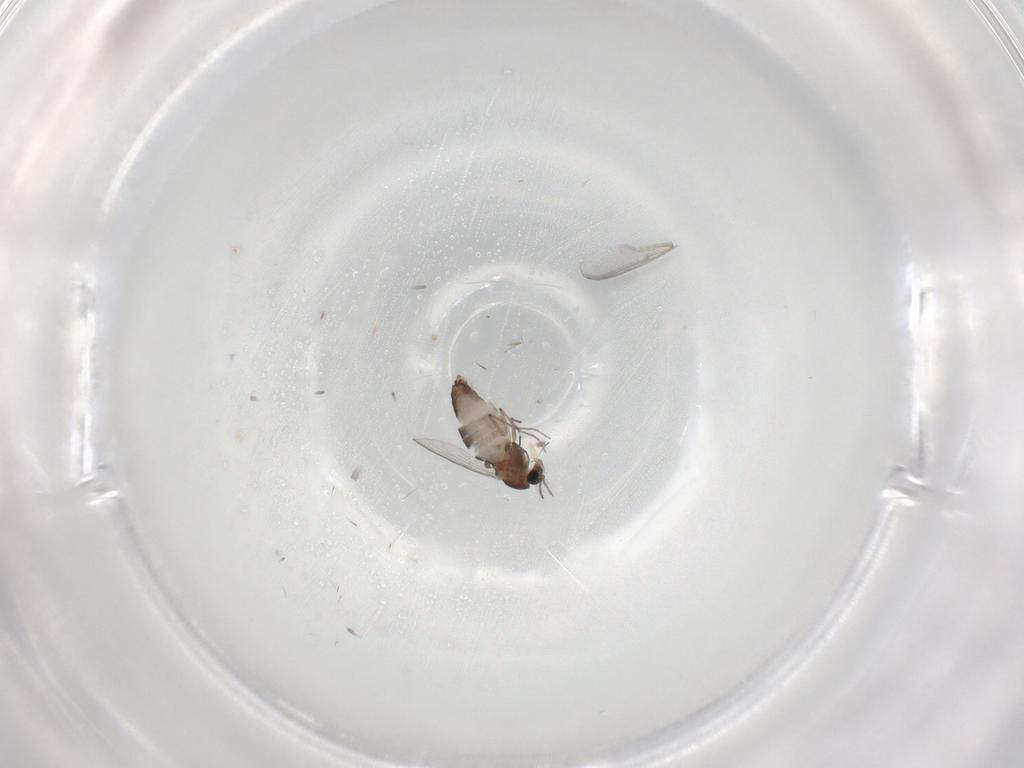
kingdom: Animalia
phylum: Arthropoda
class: Insecta
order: Diptera
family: Chironomidae
